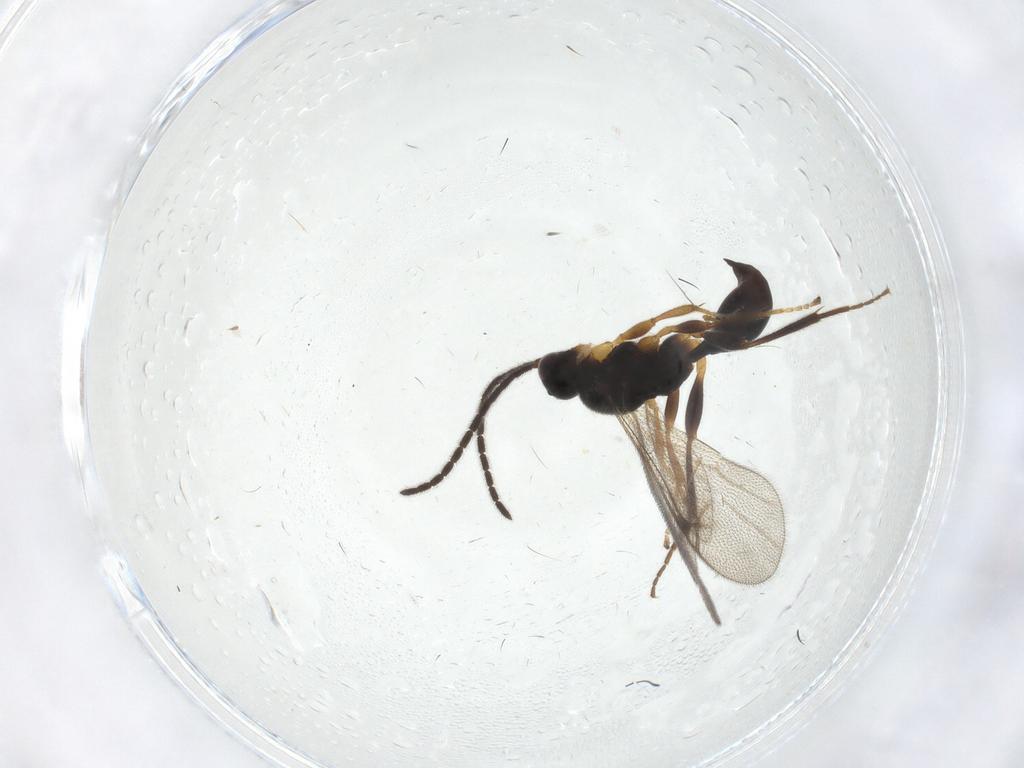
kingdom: Animalia
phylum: Arthropoda
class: Insecta
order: Hymenoptera
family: Proctotrupidae
